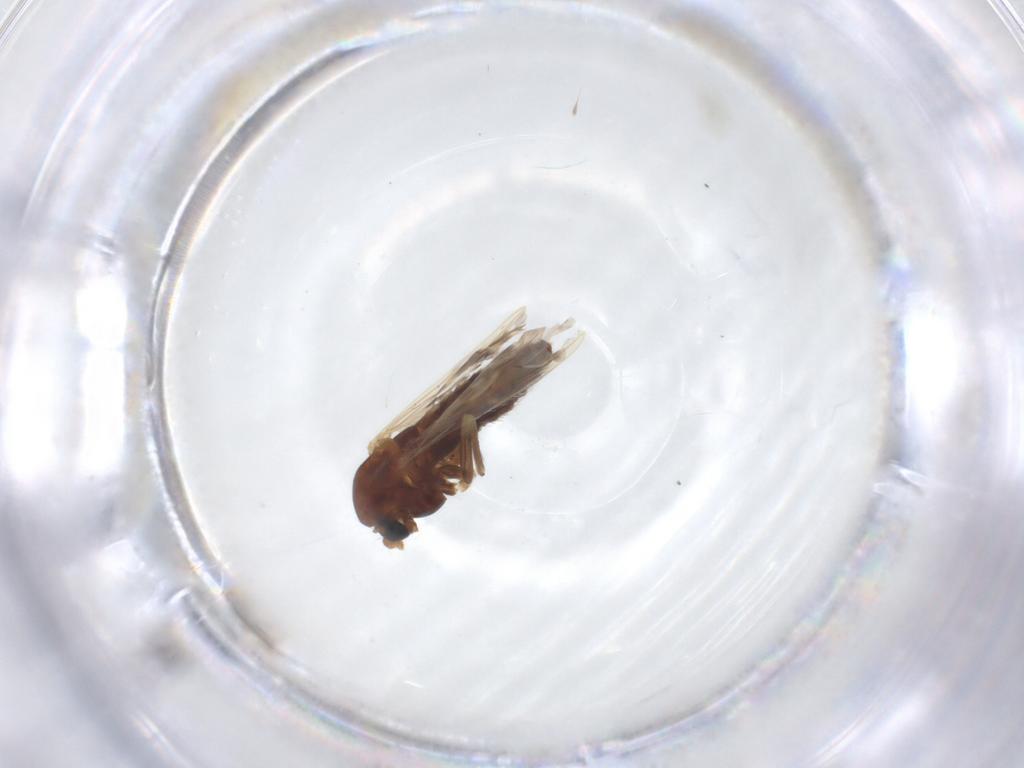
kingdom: Animalia
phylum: Arthropoda
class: Insecta
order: Diptera
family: Chironomidae
